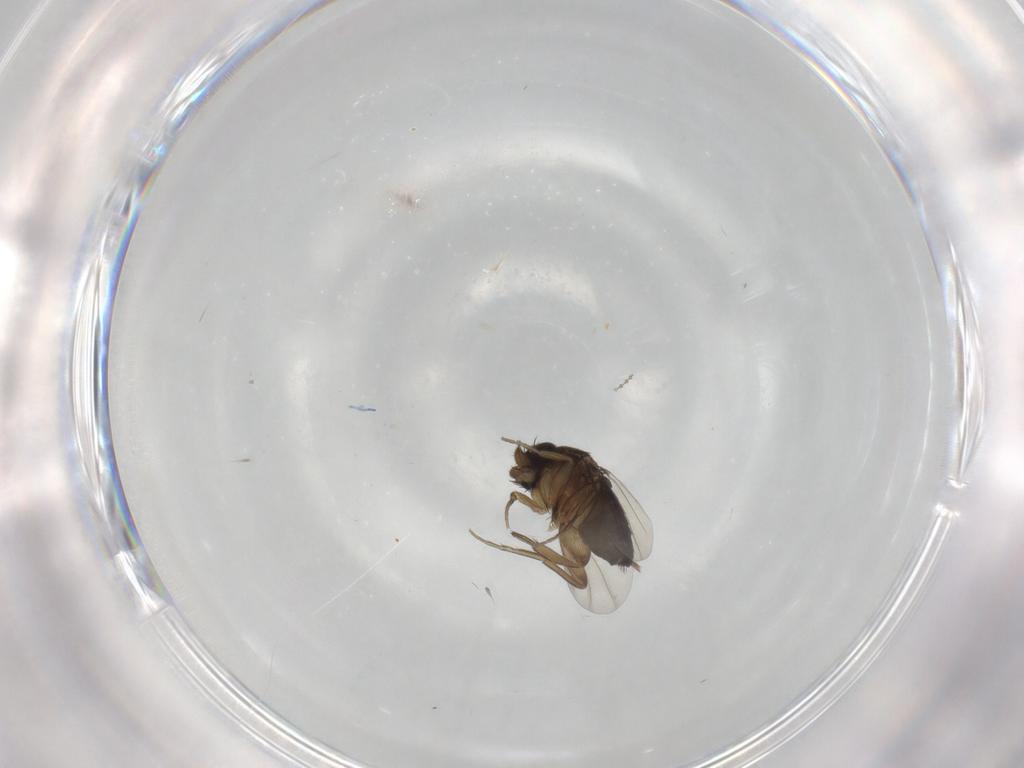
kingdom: Animalia
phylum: Arthropoda
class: Insecta
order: Diptera
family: Phoridae
